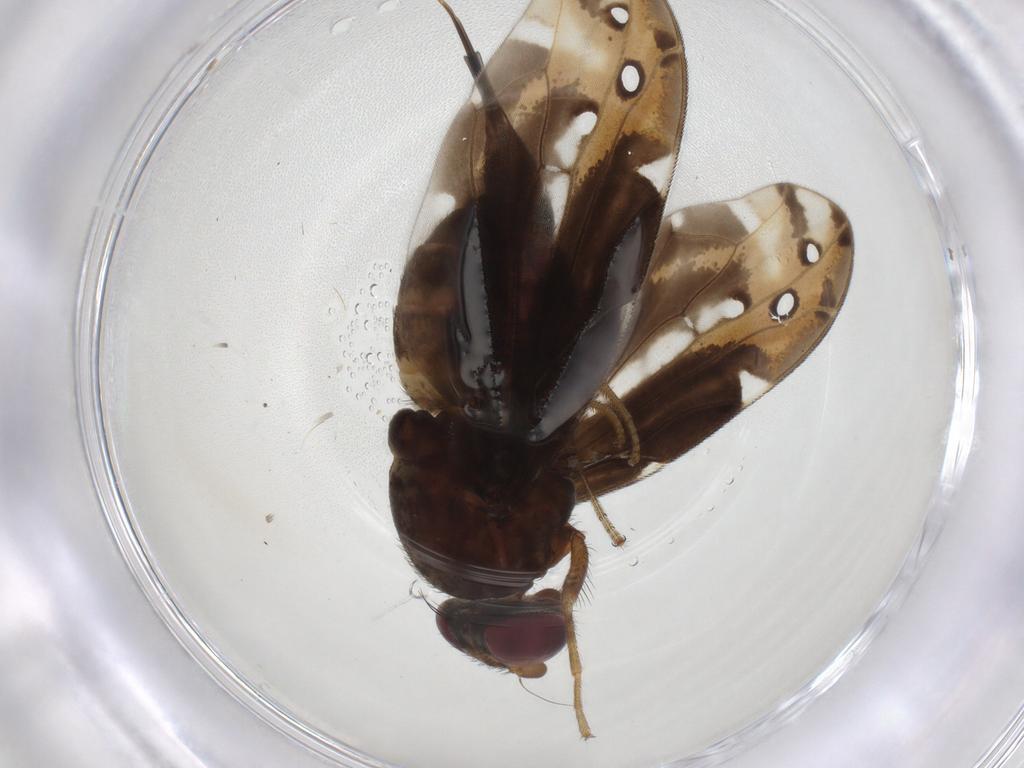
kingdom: Animalia
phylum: Arthropoda
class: Insecta
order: Diptera
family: Ulidiidae
